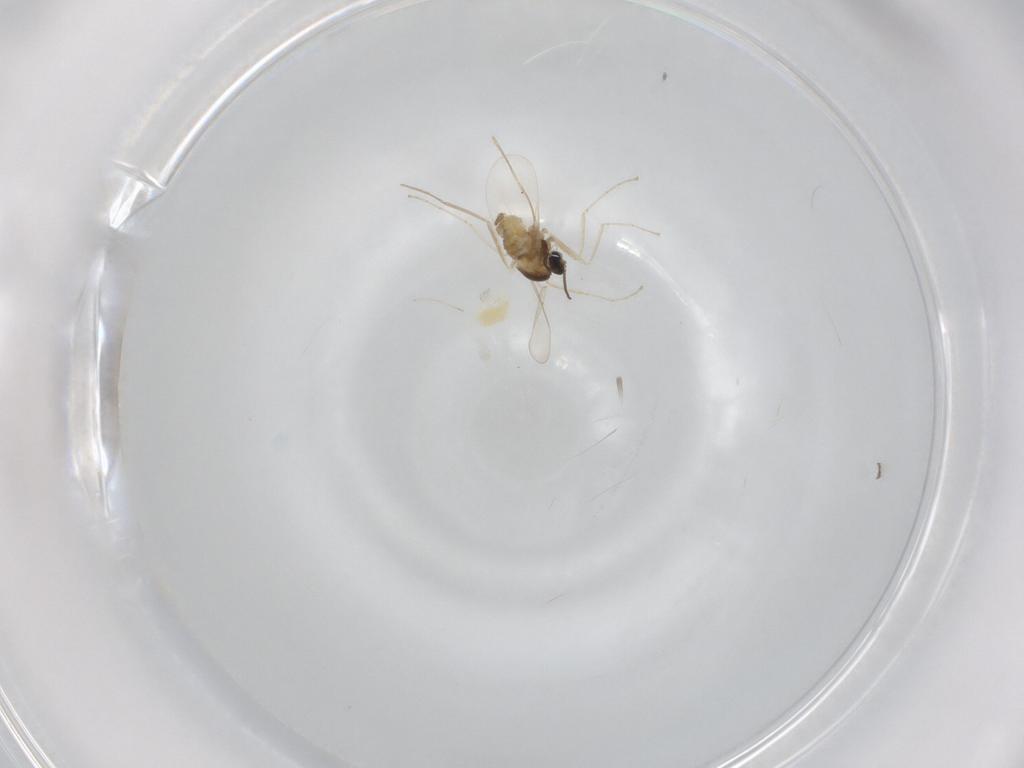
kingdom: Animalia
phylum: Arthropoda
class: Insecta
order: Diptera
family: Cecidomyiidae
